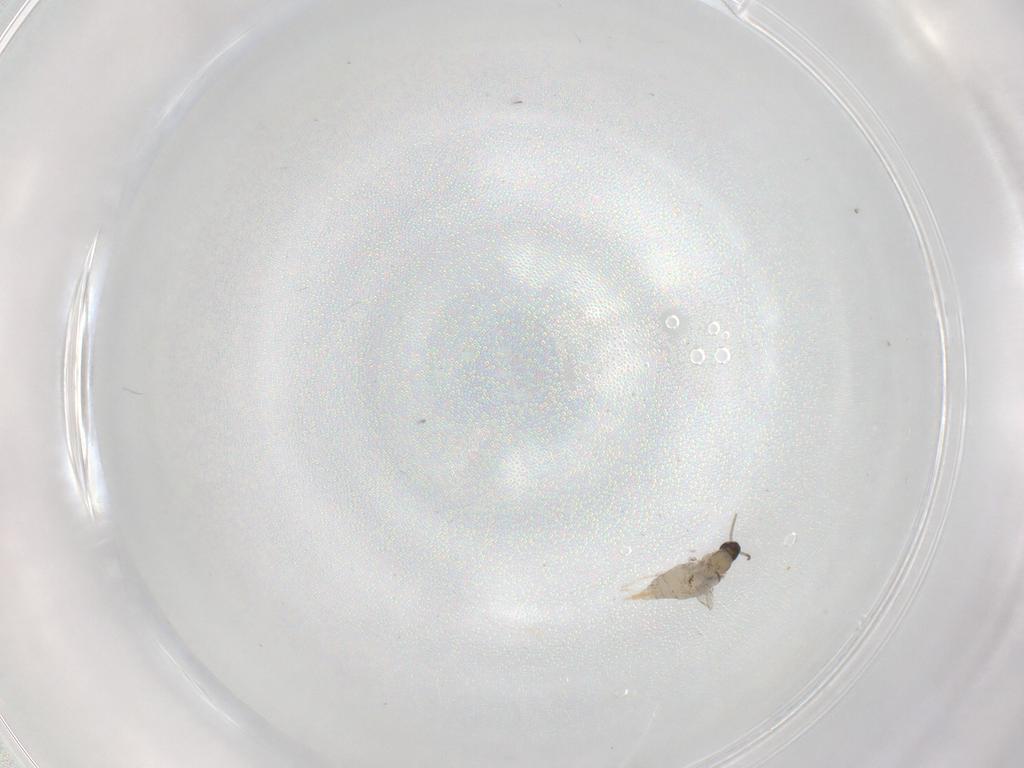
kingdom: Animalia
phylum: Arthropoda
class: Insecta
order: Diptera
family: Cecidomyiidae
